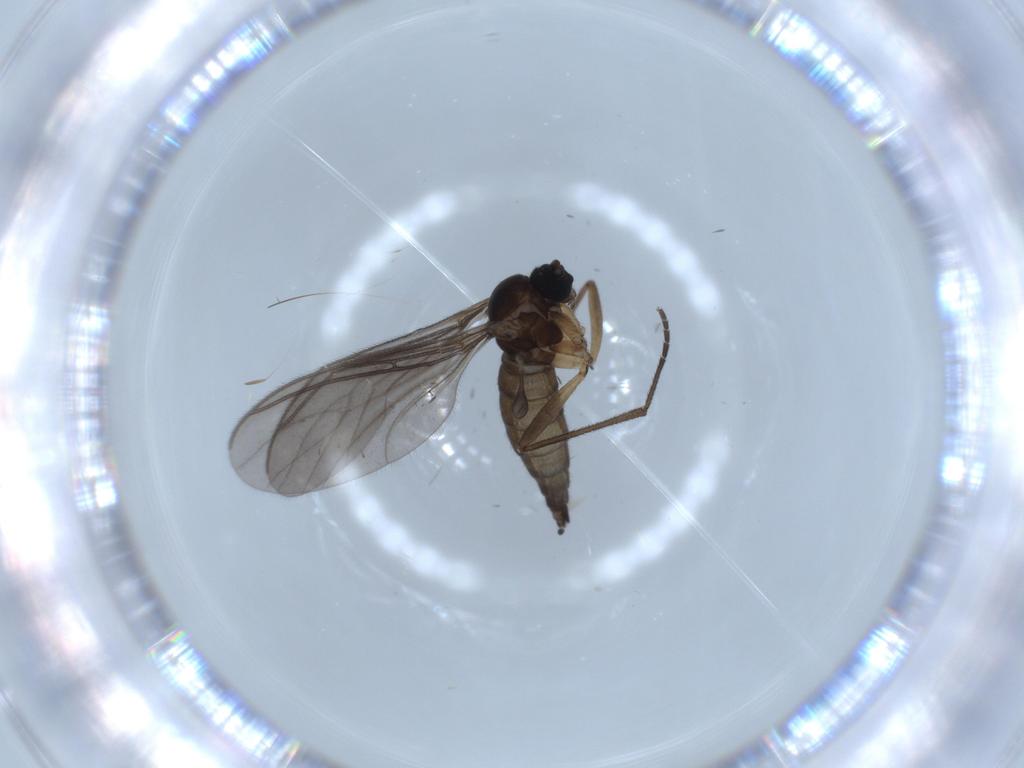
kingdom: Animalia
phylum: Arthropoda
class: Insecta
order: Diptera
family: Sciaridae
